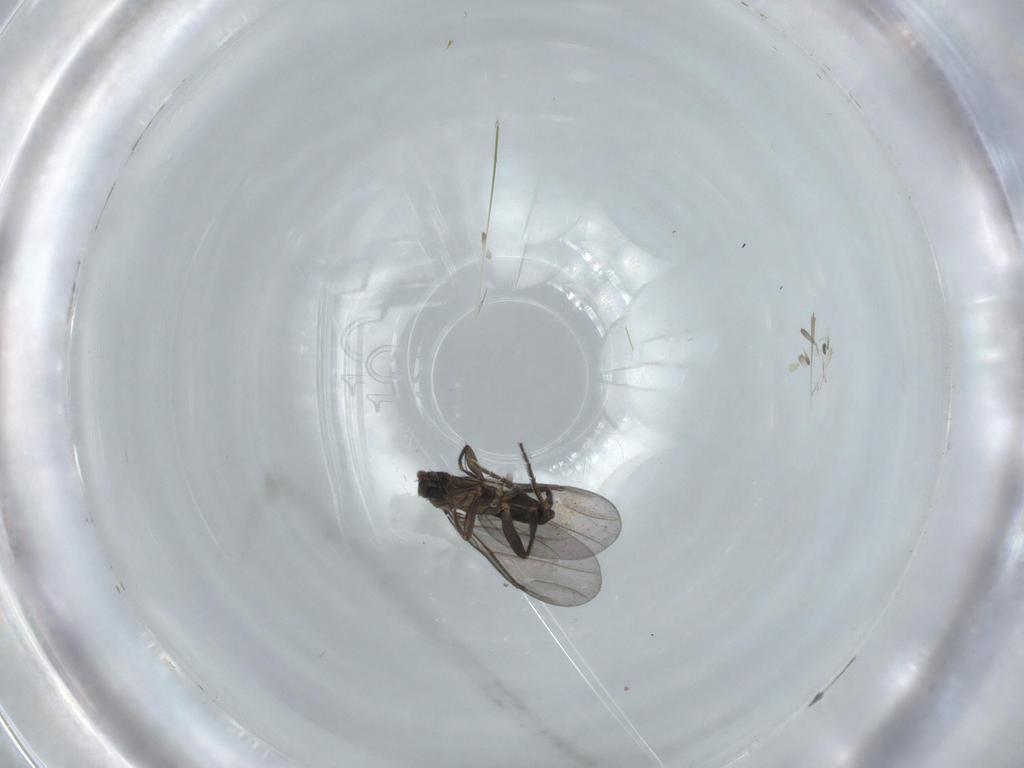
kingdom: Animalia
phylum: Arthropoda
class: Insecta
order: Diptera
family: Phoridae
